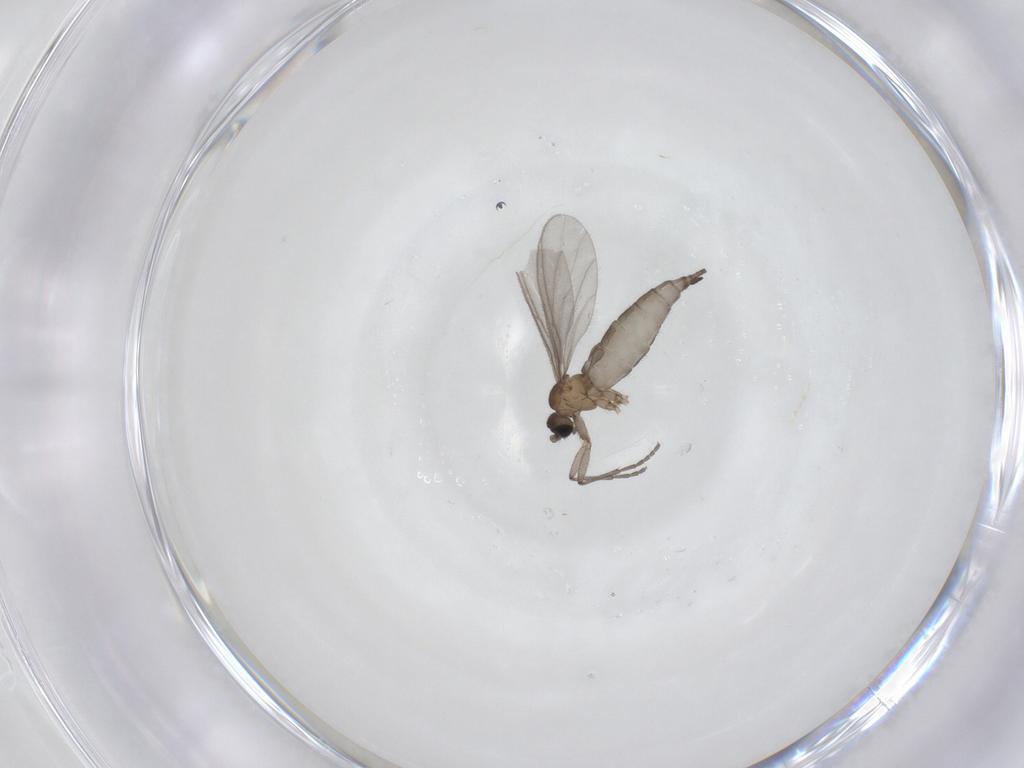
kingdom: Animalia
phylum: Arthropoda
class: Insecta
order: Diptera
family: Sciaridae
